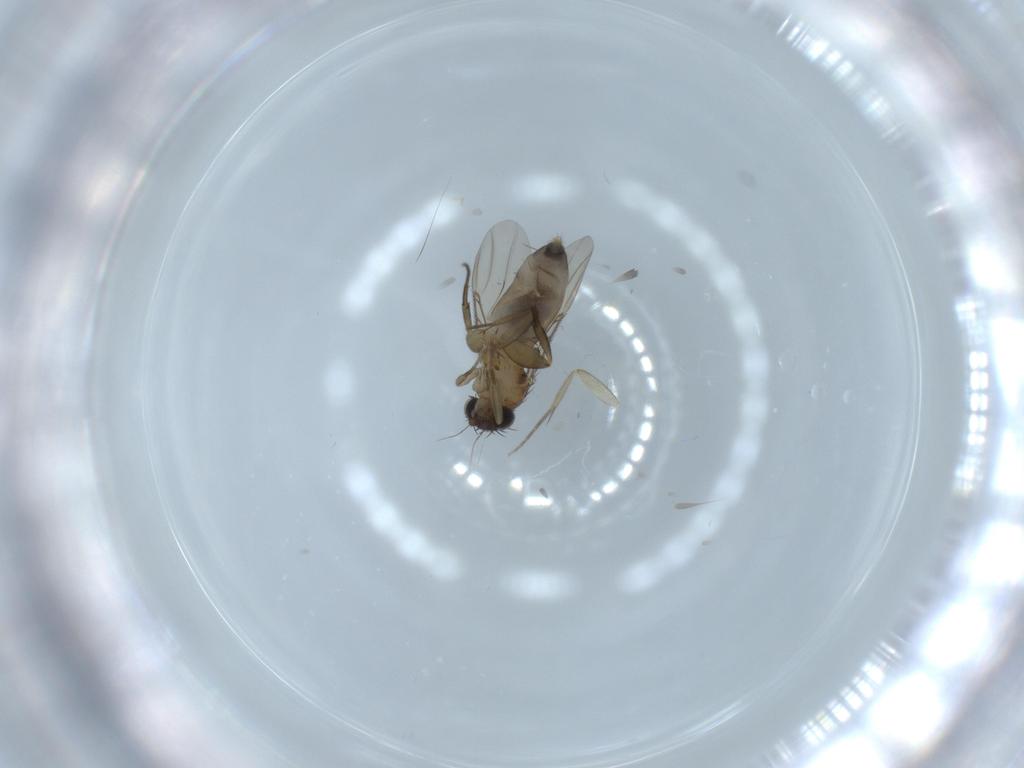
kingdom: Animalia
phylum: Arthropoda
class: Insecta
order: Diptera
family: Phoridae
